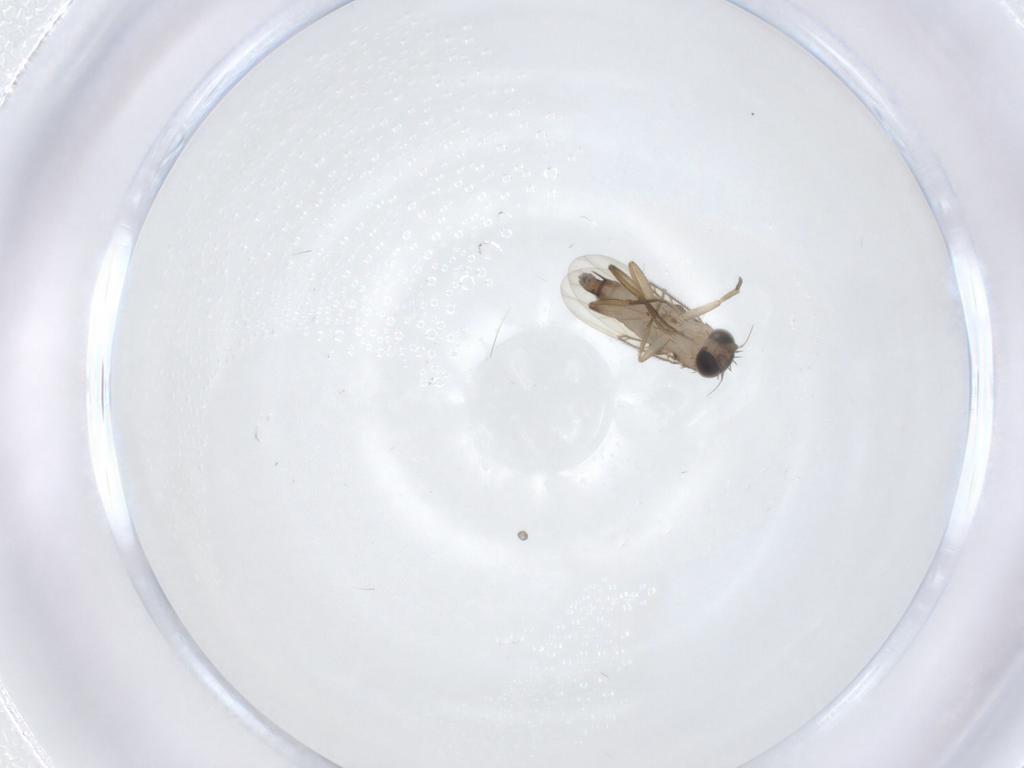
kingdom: Animalia
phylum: Arthropoda
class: Insecta
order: Diptera
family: Phoridae
